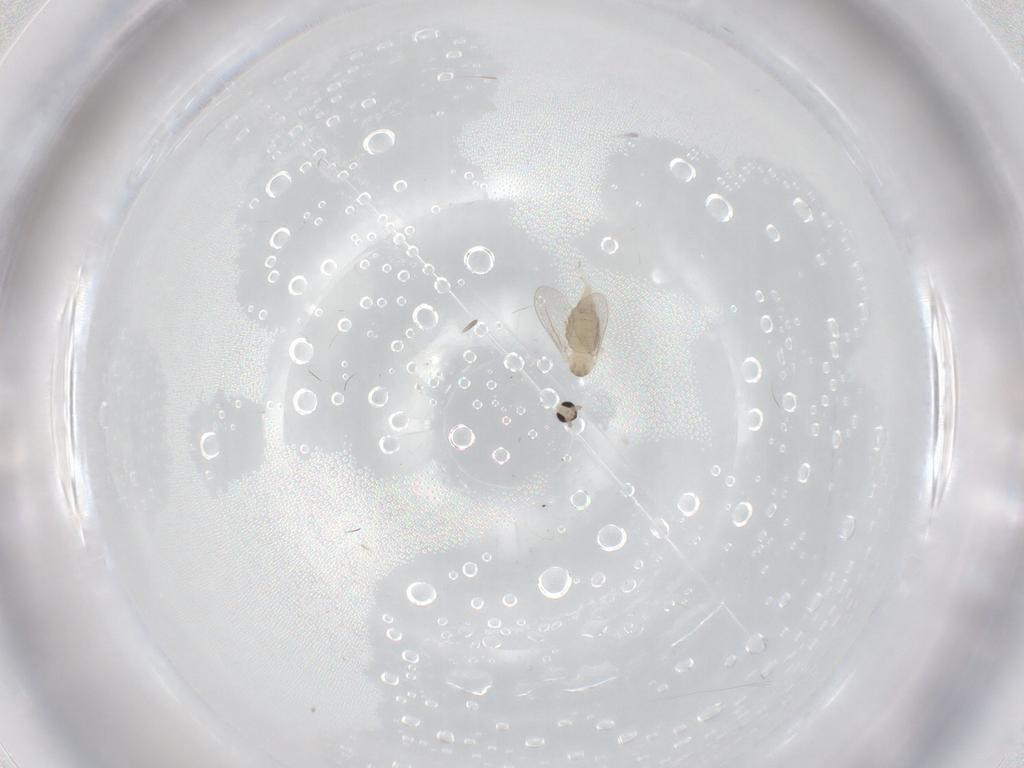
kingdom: Animalia
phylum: Arthropoda
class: Insecta
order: Diptera
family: Cecidomyiidae
